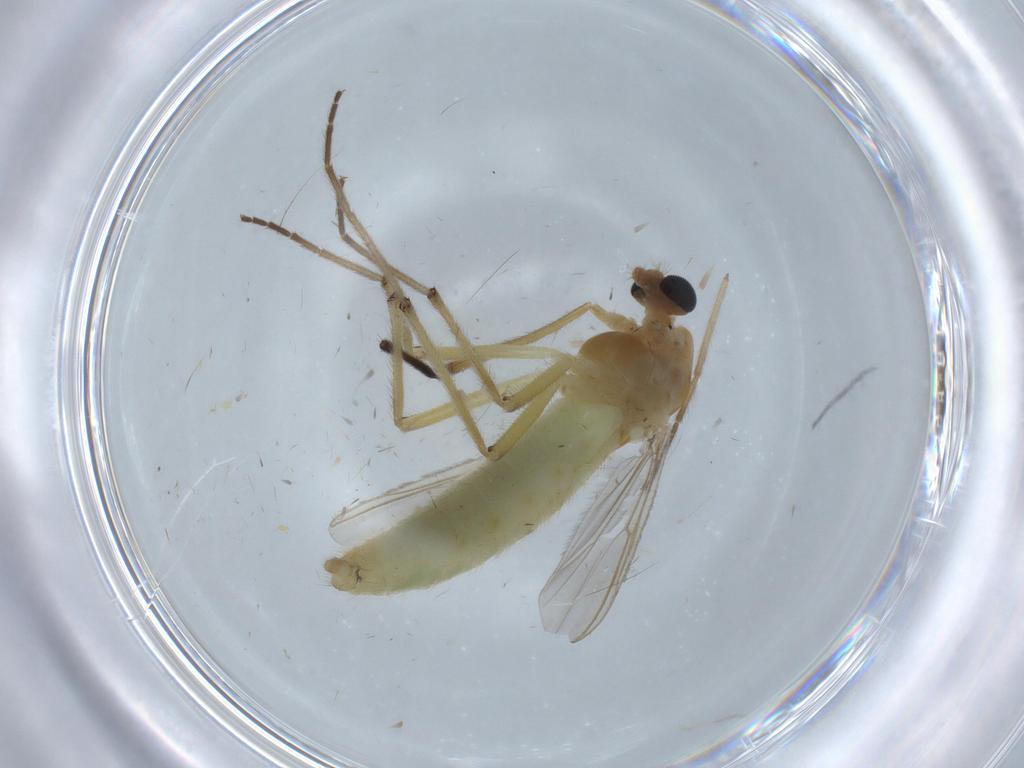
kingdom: Animalia
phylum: Arthropoda
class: Insecta
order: Diptera
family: Chironomidae
